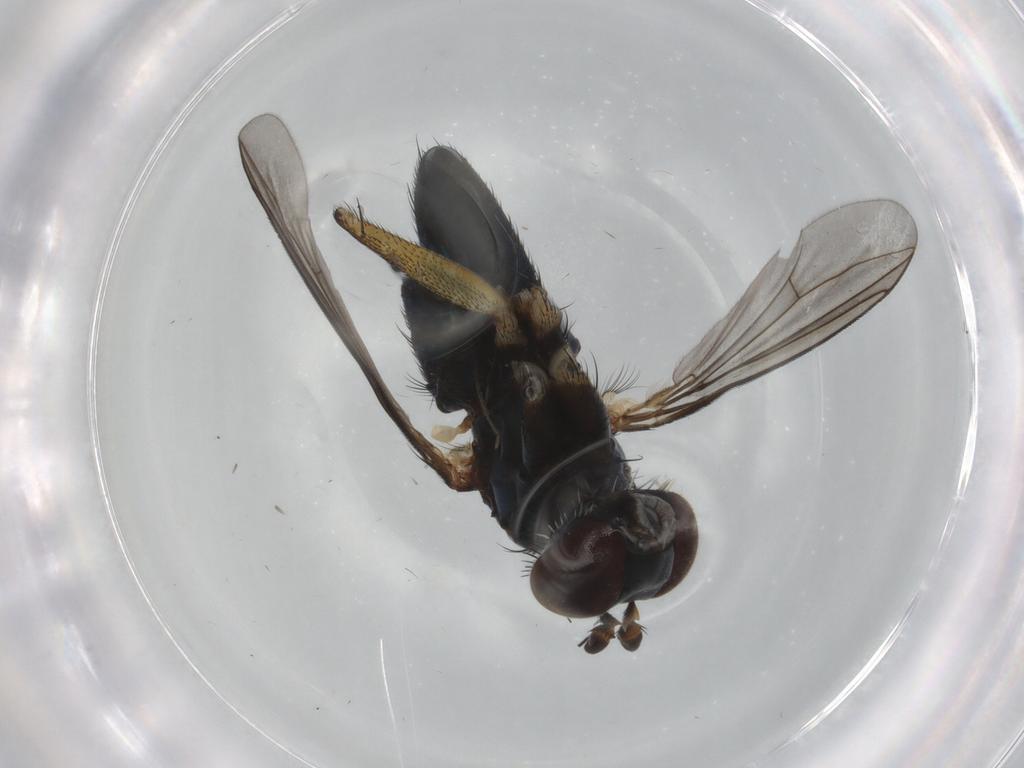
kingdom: Animalia
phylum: Arthropoda
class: Insecta
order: Diptera
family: Dolichopodidae
